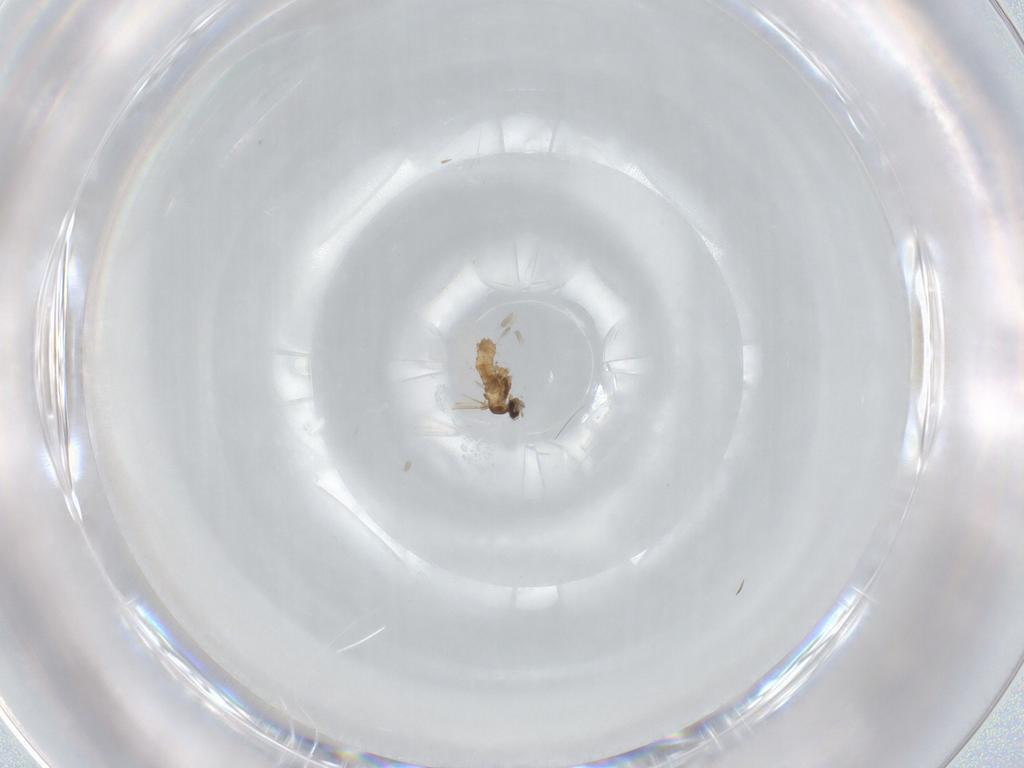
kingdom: Animalia
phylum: Arthropoda
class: Insecta
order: Diptera
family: Cecidomyiidae
